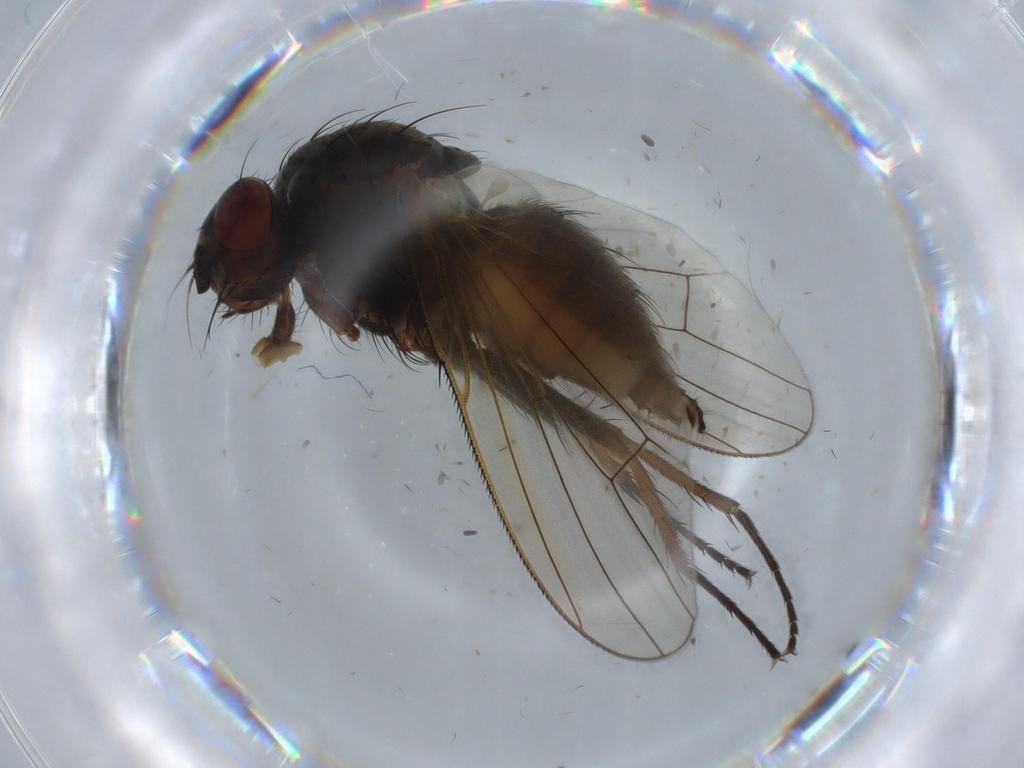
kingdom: Animalia
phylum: Arthropoda
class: Insecta
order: Diptera
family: Anthomyiidae
